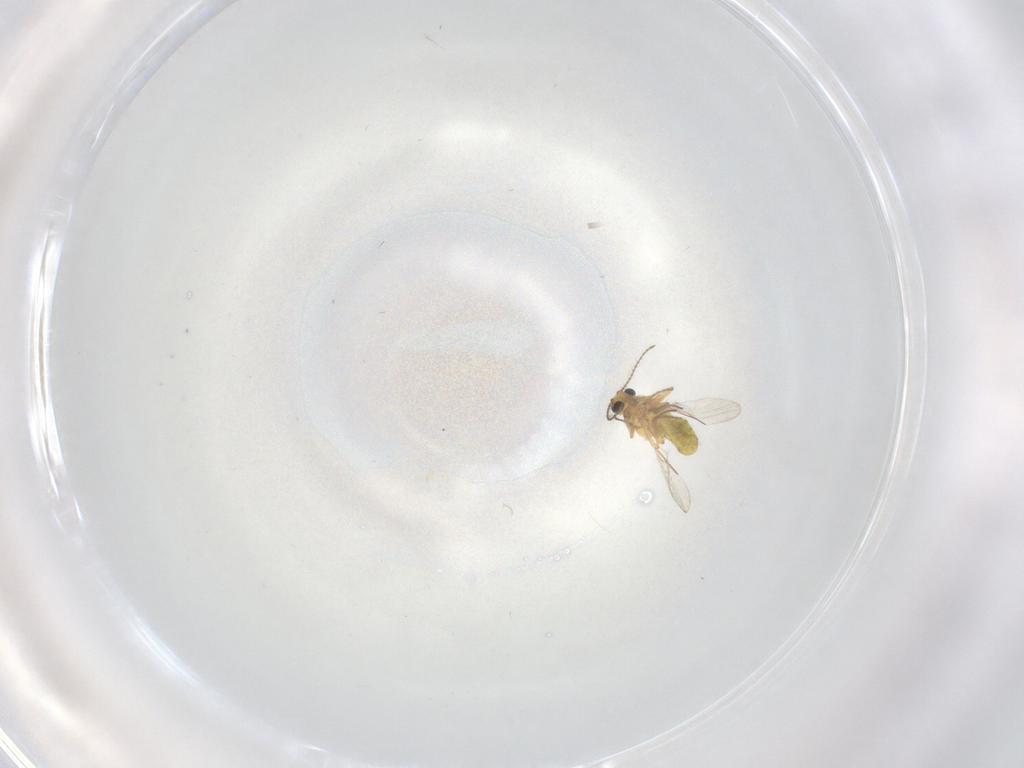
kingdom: Animalia
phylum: Arthropoda
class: Insecta
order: Diptera
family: Ceratopogonidae
